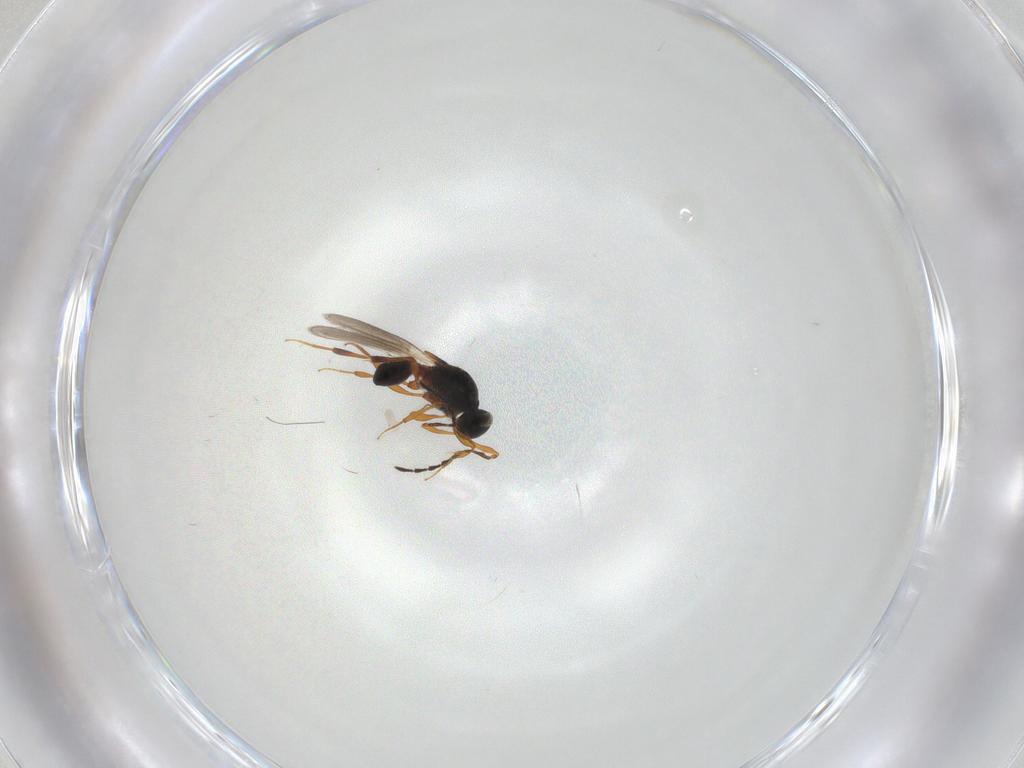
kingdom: Animalia
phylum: Arthropoda
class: Insecta
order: Hymenoptera
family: Platygastridae
